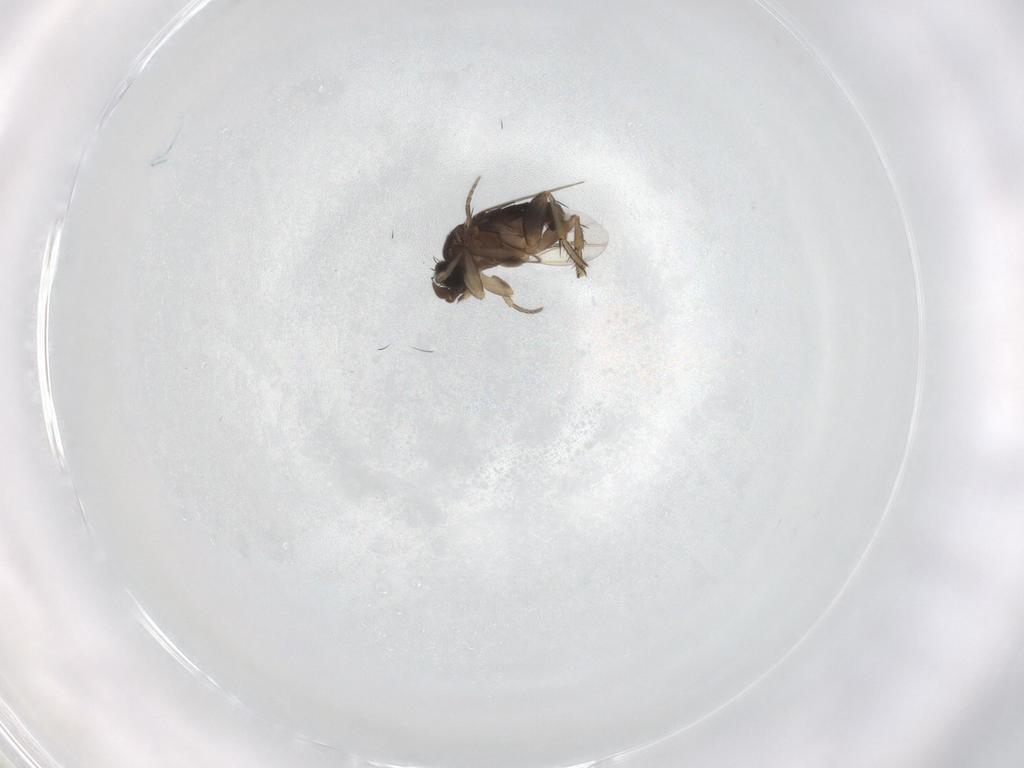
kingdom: Animalia
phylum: Arthropoda
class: Insecta
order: Diptera
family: Phoridae
